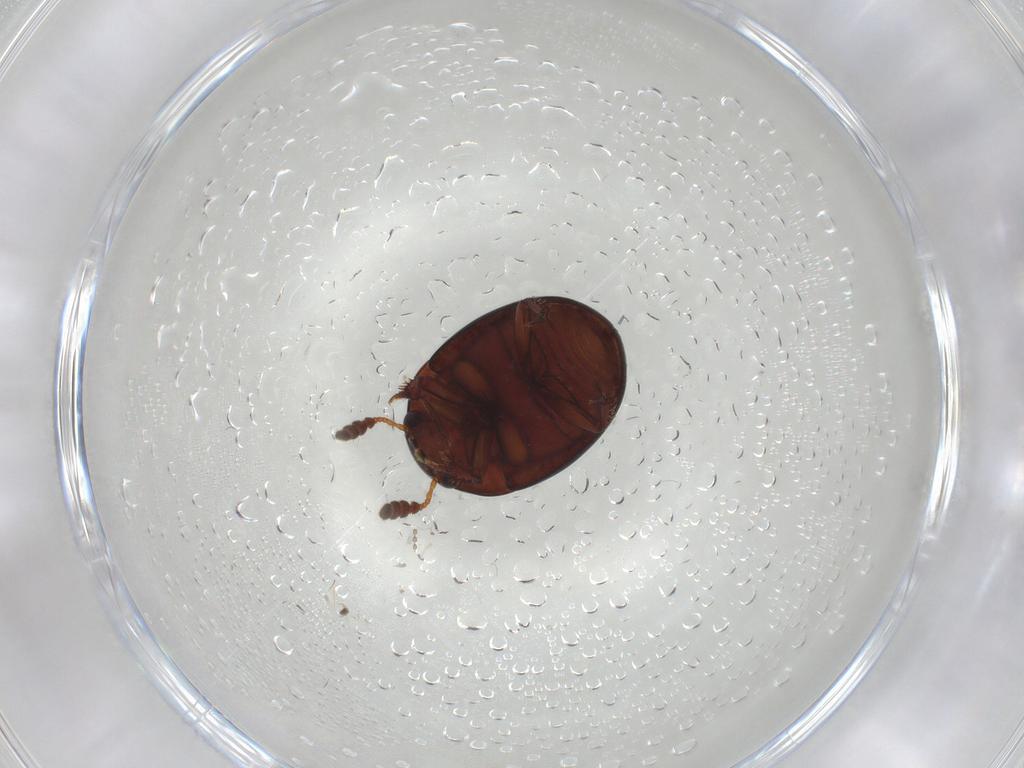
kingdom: Animalia
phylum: Arthropoda
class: Insecta
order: Coleoptera
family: Leiodidae
